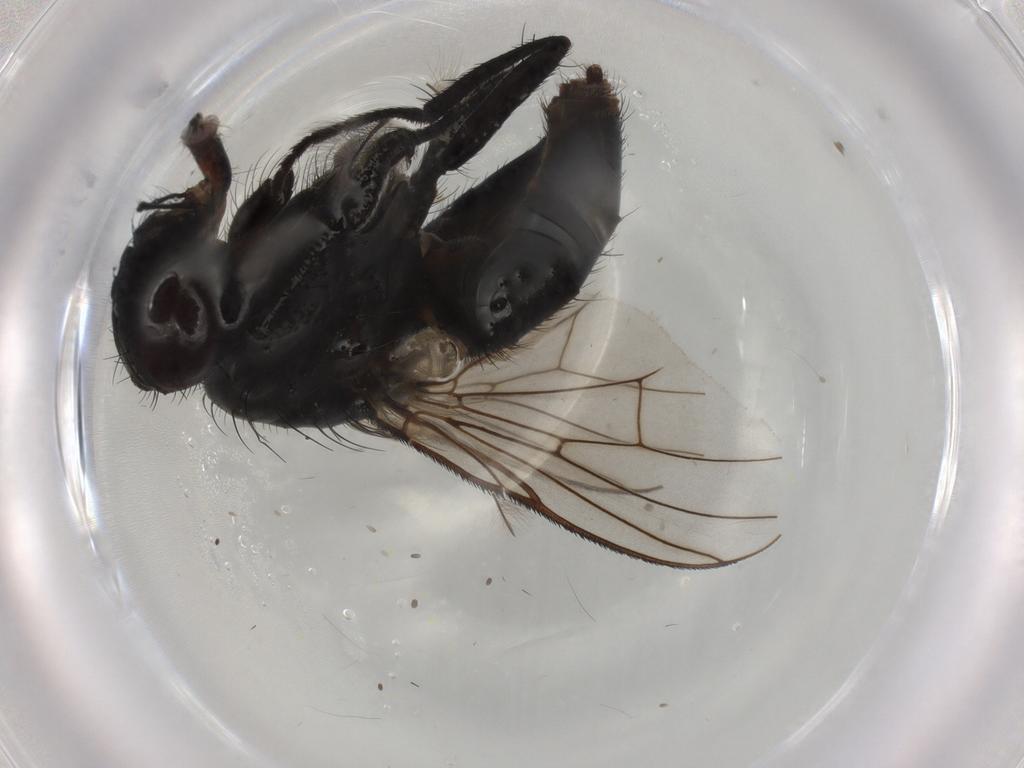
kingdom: Animalia
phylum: Arthropoda
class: Insecta
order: Diptera
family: Muscidae
